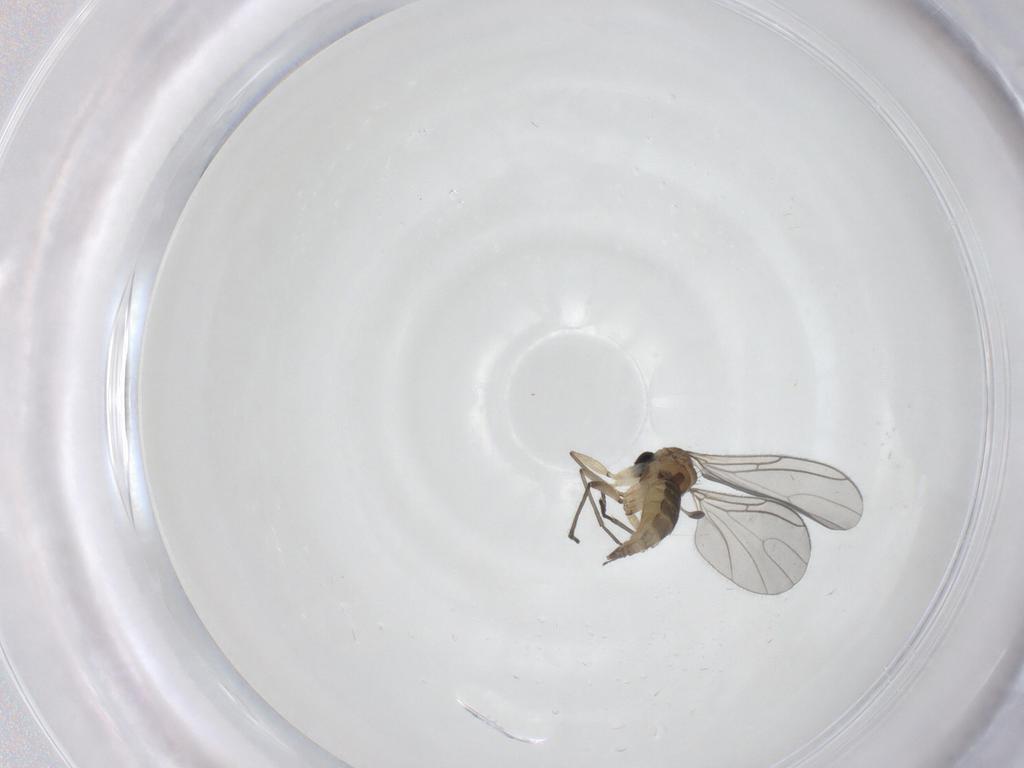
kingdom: Animalia
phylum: Arthropoda
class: Insecta
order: Diptera
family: Sciaridae
